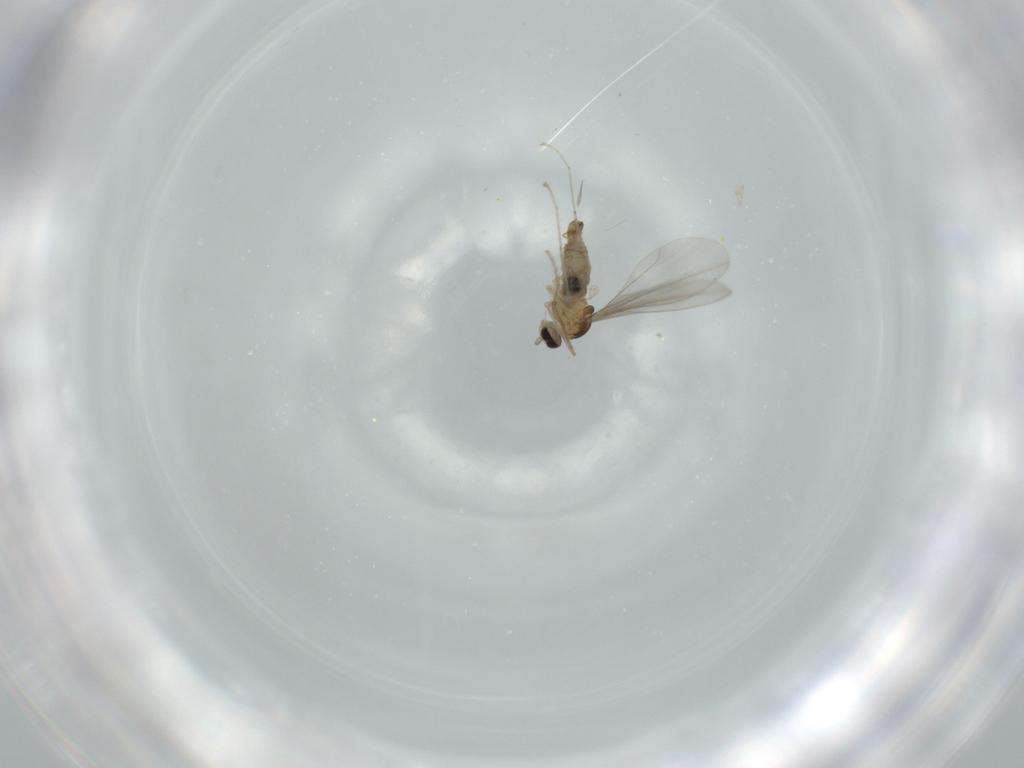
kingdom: Animalia
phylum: Arthropoda
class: Insecta
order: Diptera
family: Cecidomyiidae
